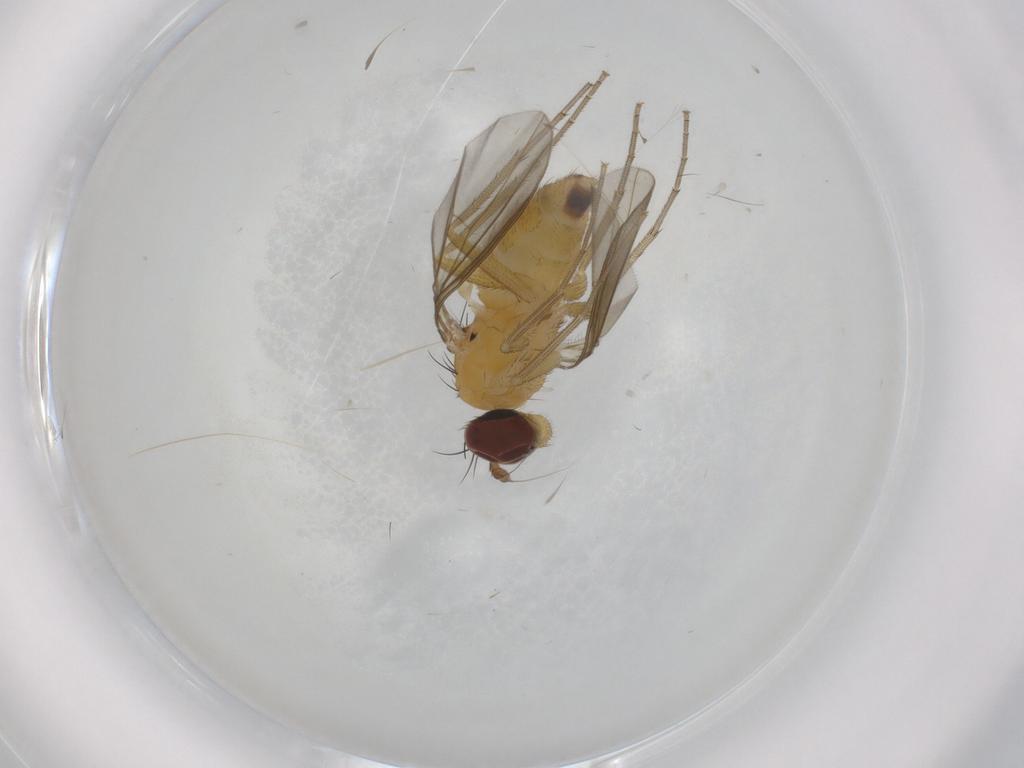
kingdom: Animalia
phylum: Arthropoda
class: Insecta
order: Diptera
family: Dolichopodidae
